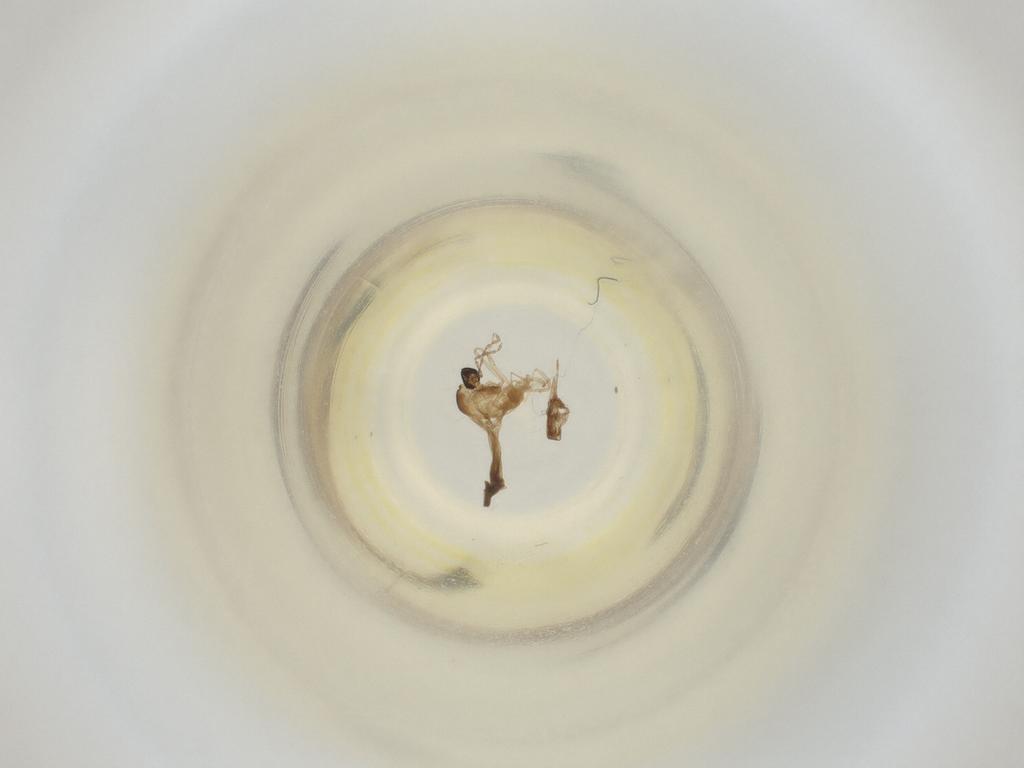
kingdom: Animalia
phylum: Arthropoda
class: Insecta
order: Diptera
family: Cecidomyiidae
